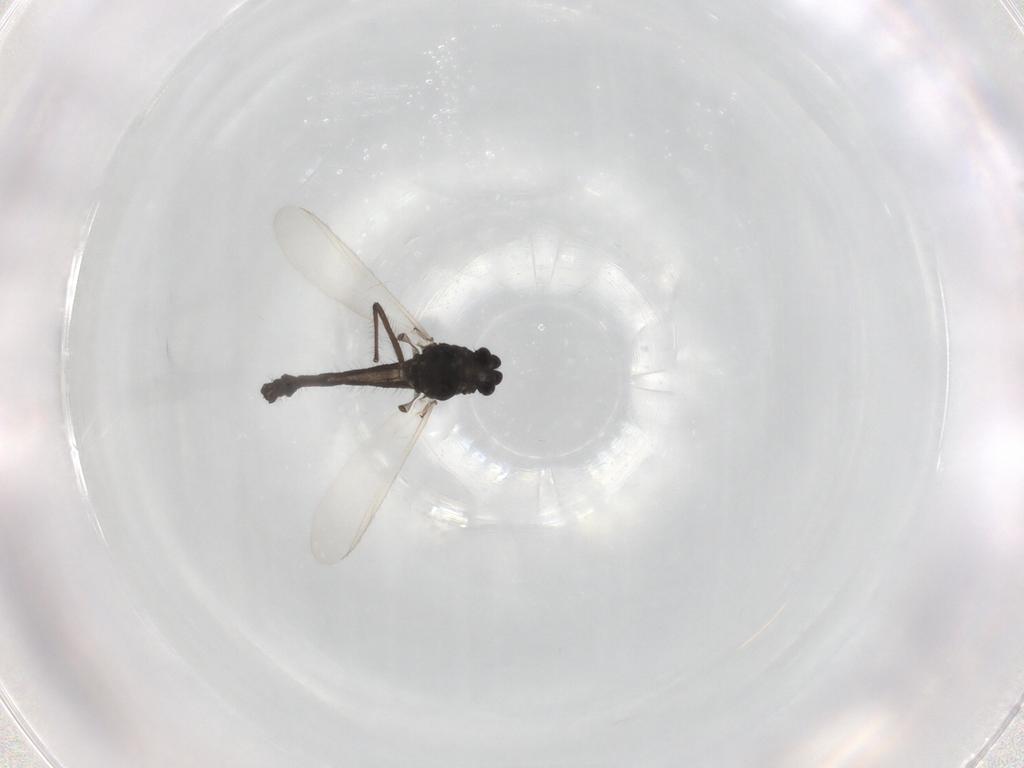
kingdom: Animalia
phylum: Arthropoda
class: Insecta
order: Diptera
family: Chironomidae
